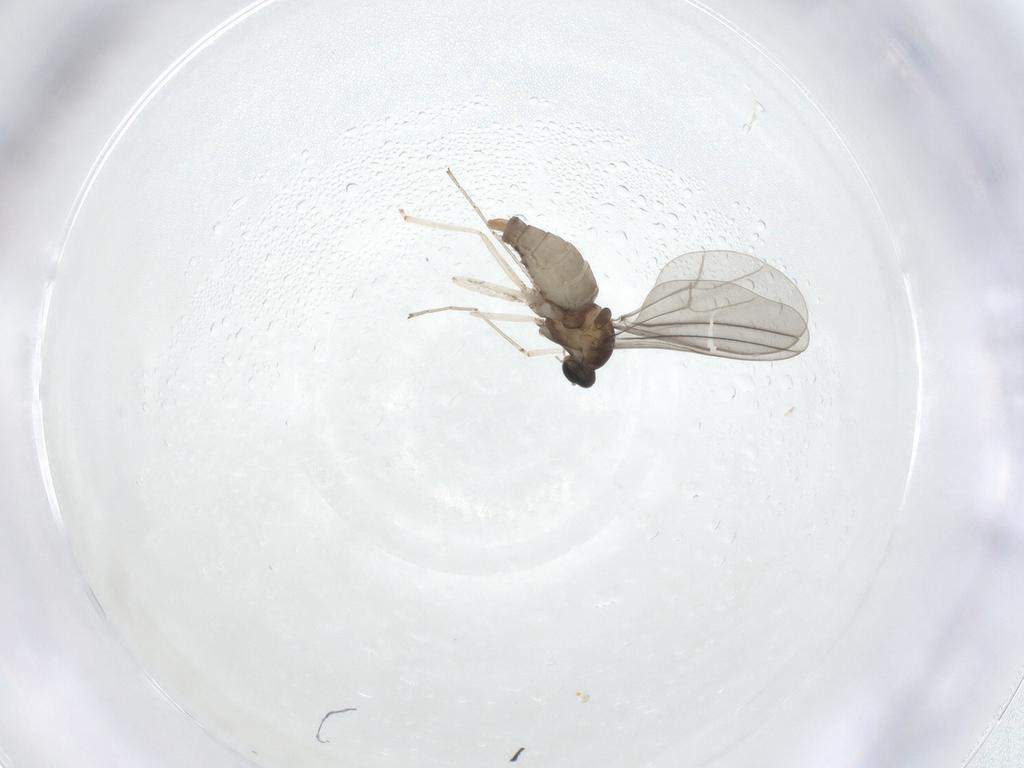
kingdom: Animalia
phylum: Arthropoda
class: Insecta
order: Diptera
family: Cecidomyiidae
